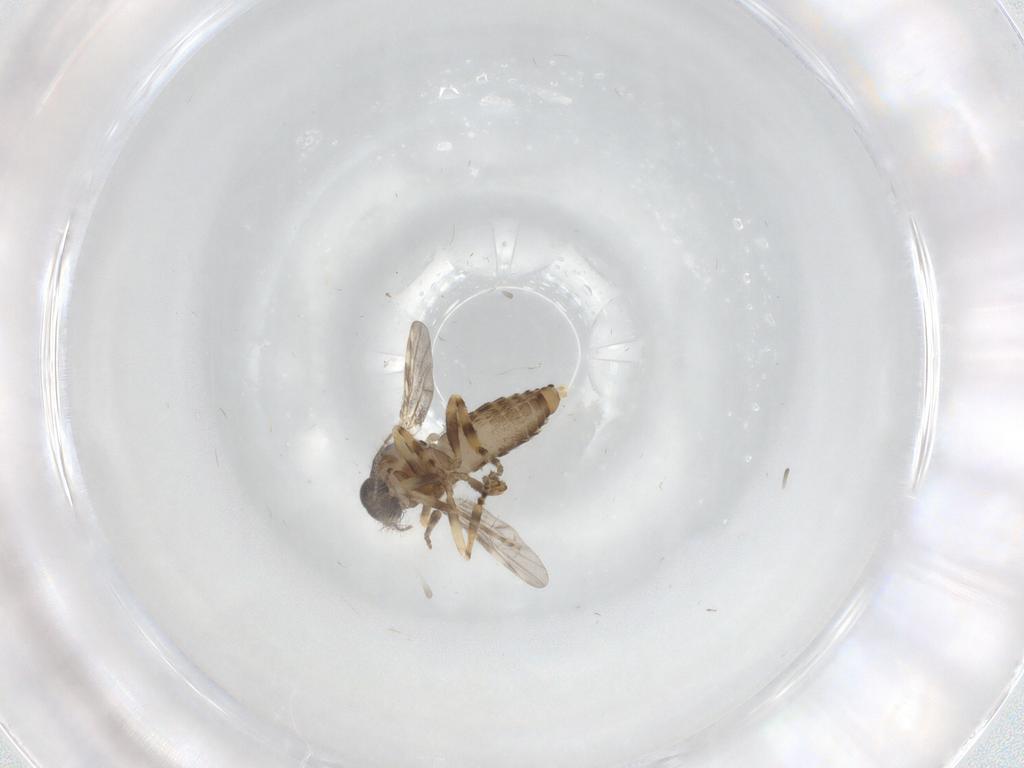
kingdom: Animalia
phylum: Arthropoda
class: Insecta
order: Diptera
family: Ceratopogonidae
